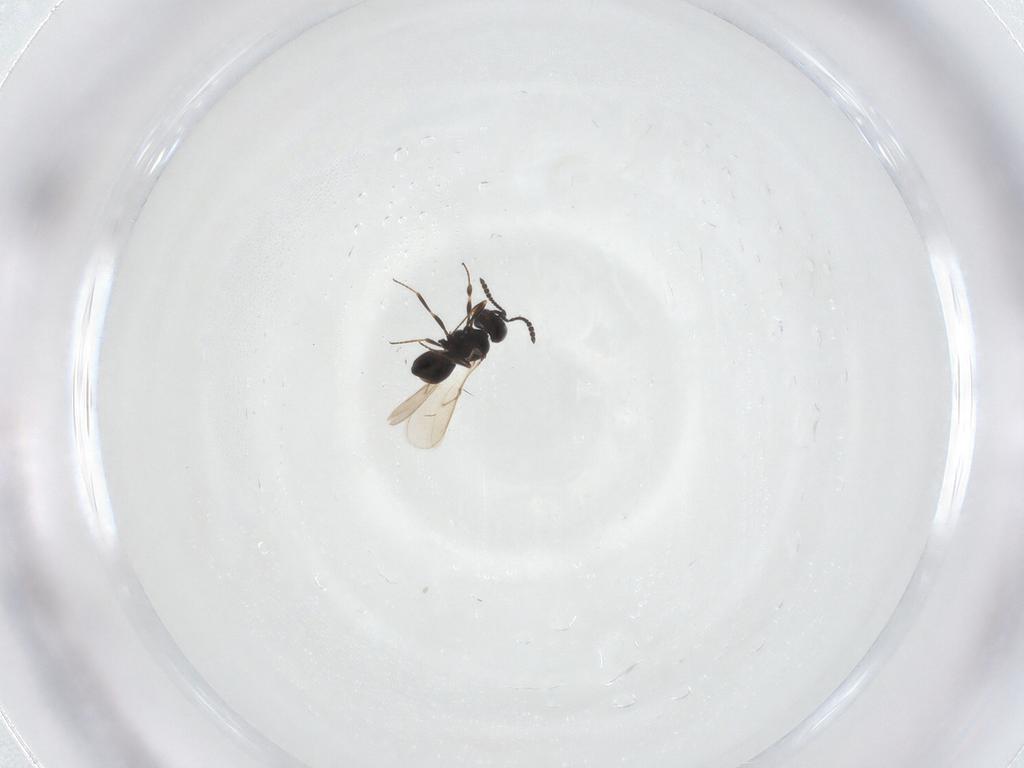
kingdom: Animalia
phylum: Arthropoda
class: Insecta
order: Hymenoptera
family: Scelionidae
